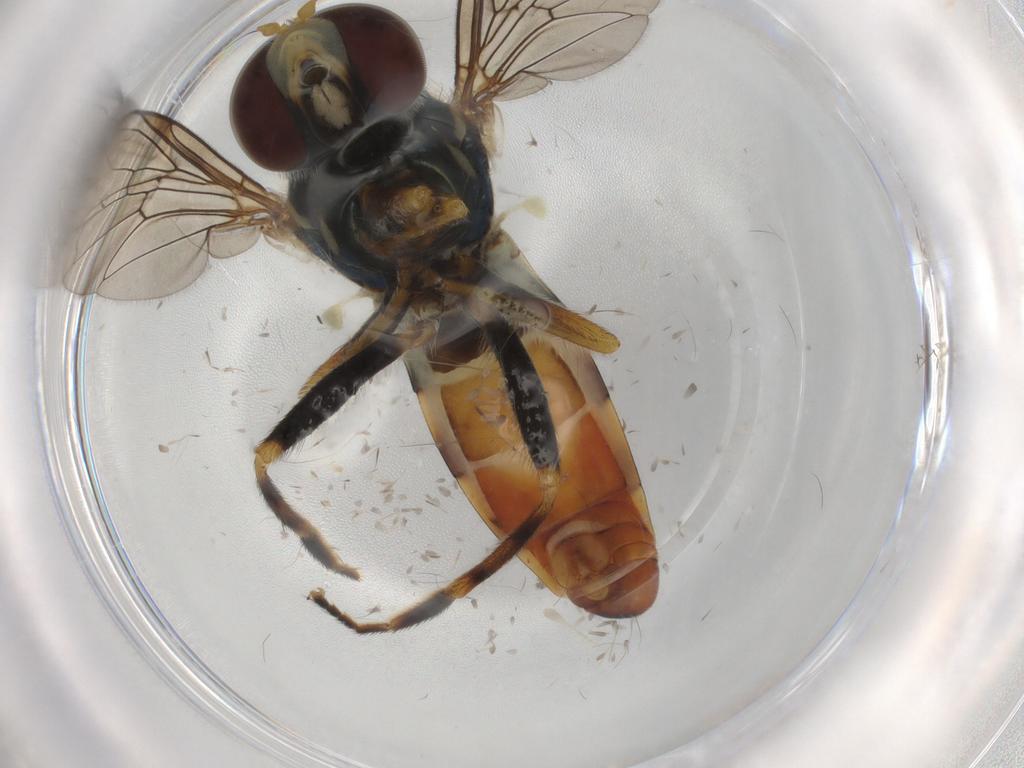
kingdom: Animalia
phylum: Arthropoda
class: Insecta
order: Diptera
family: Syrphidae
